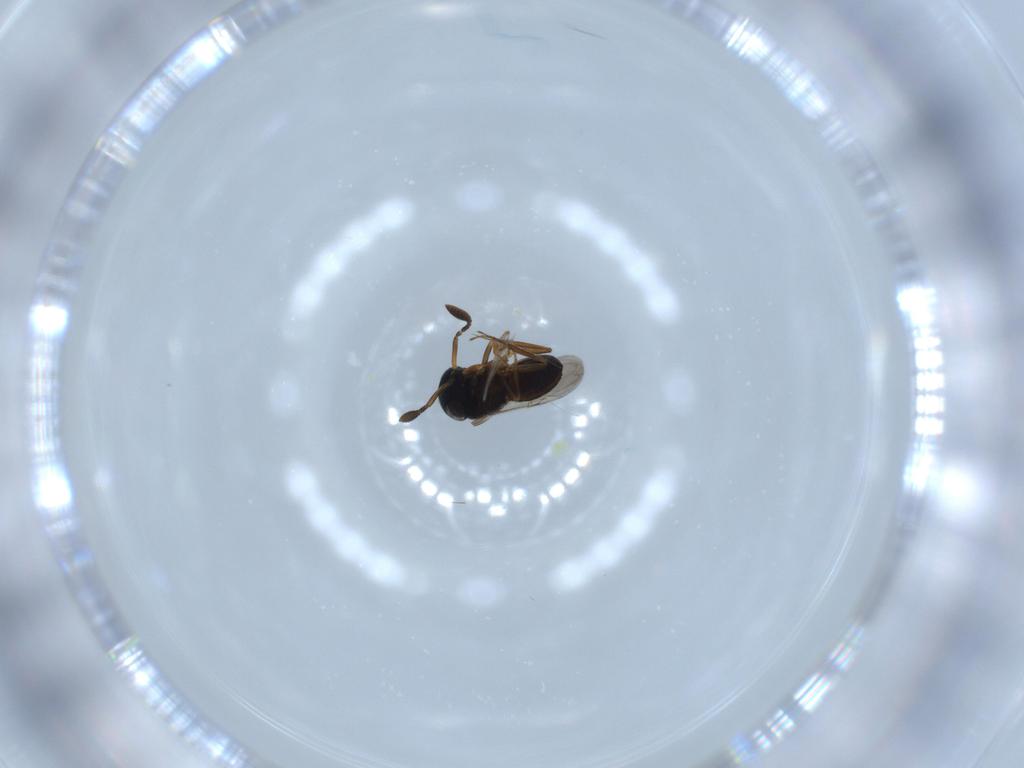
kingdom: Animalia
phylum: Arthropoda
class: Insecta
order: Hymenoptera
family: Scelionidae
